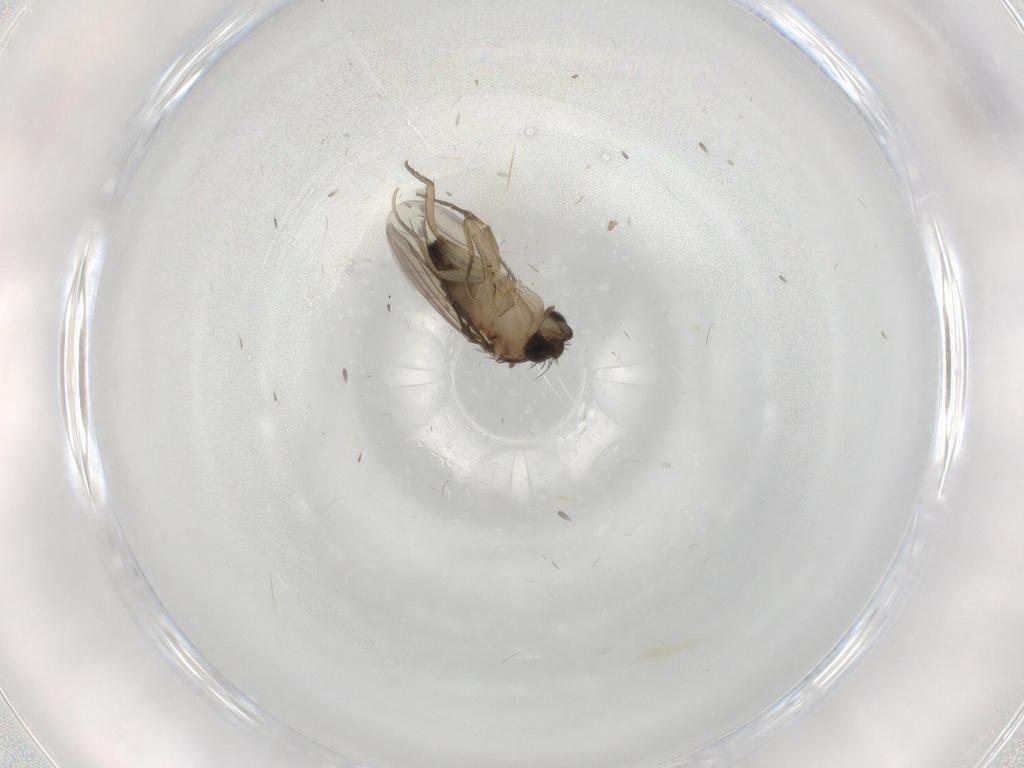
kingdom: Animalia
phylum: Arthropoda
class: Insecta
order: Diptera
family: Scatopsidae
